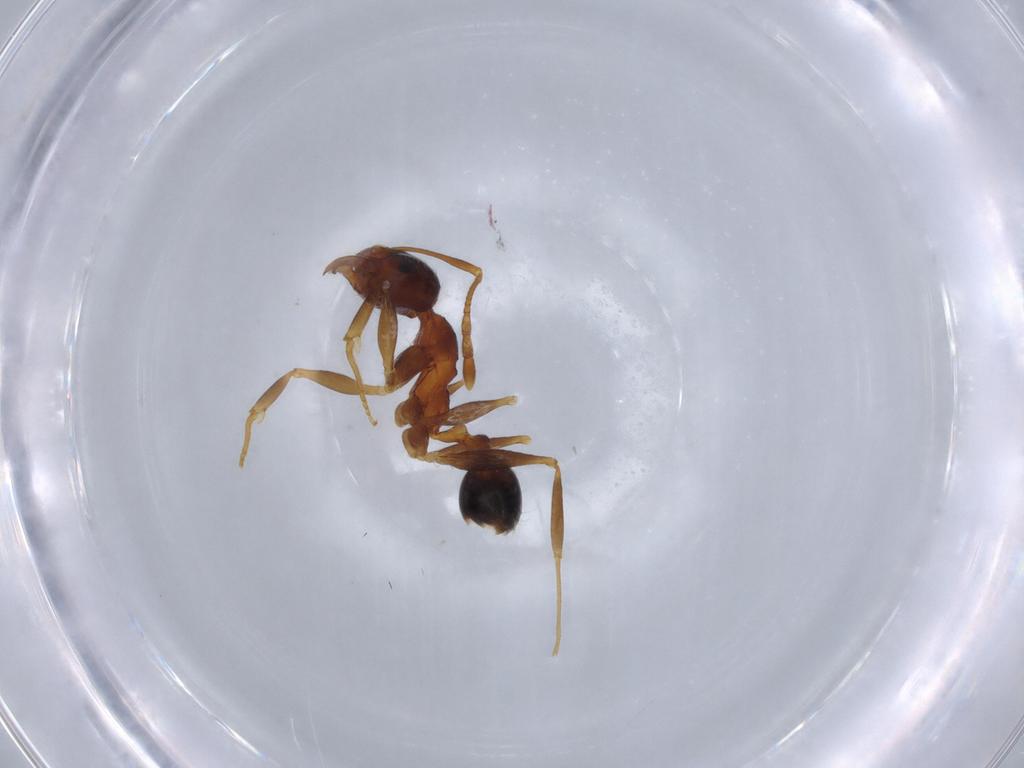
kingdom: Animalia
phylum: Arthropoda
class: Insecta
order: Hymenoptera
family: Formicidae
